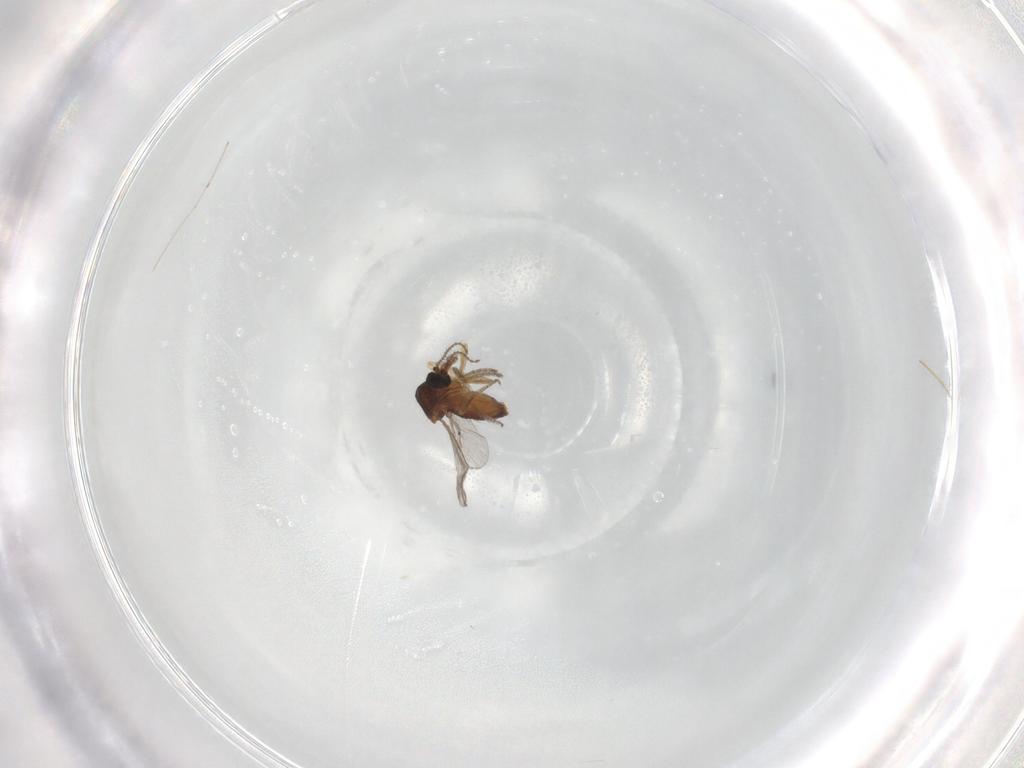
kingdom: Animalia
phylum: Arthropoda
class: Insecta
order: Diptera
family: Ceratopogonidae
